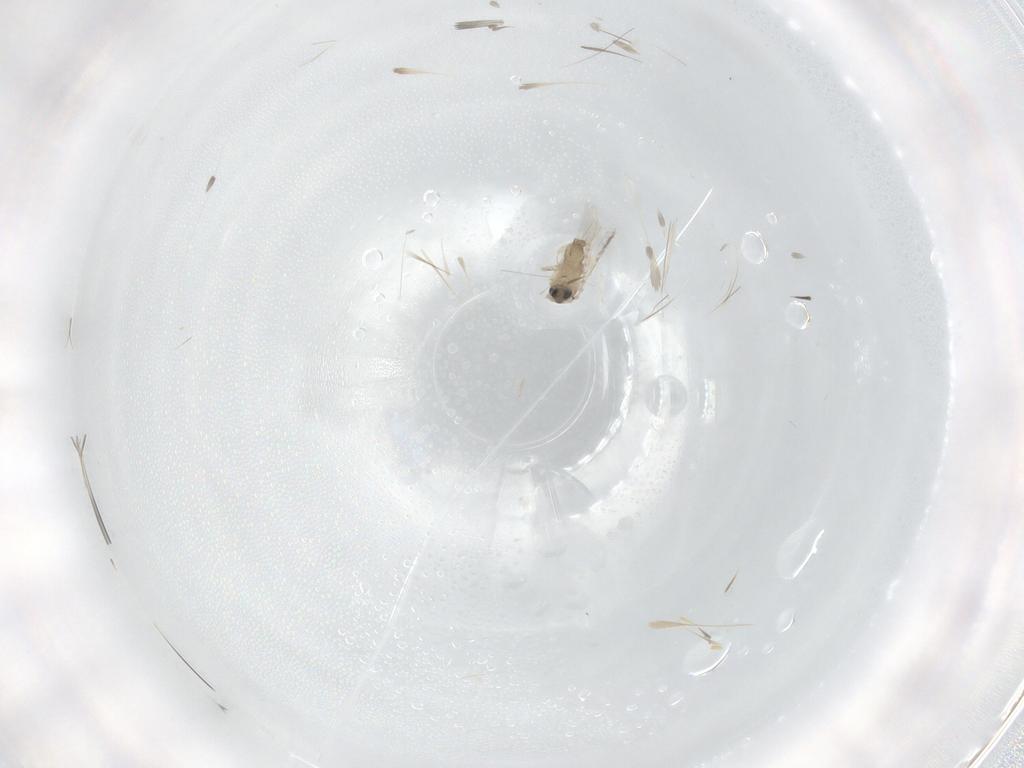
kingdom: Animalia
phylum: Arthropoda
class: Insecta
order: Diptera
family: Cecidomyiidae
